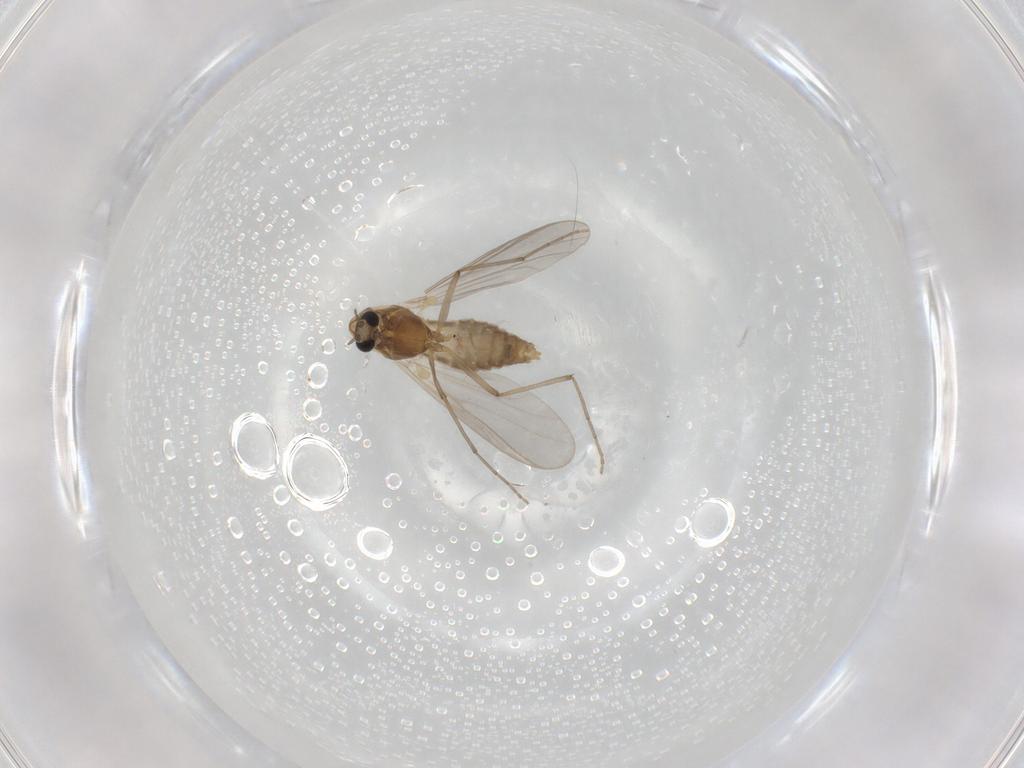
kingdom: Animalia
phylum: Arthropoda
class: Insecta
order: Diptera
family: Chironomidae
